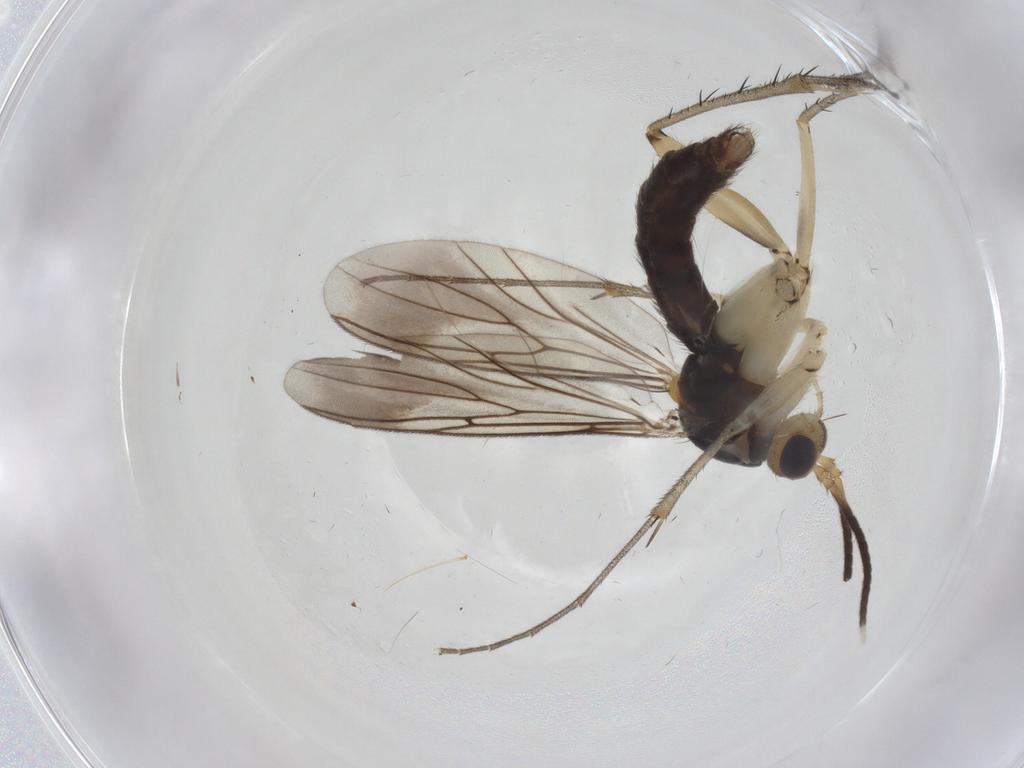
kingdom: Animalia
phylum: Arthropoda
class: Insecta
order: Diptera
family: Mycetophilidae
